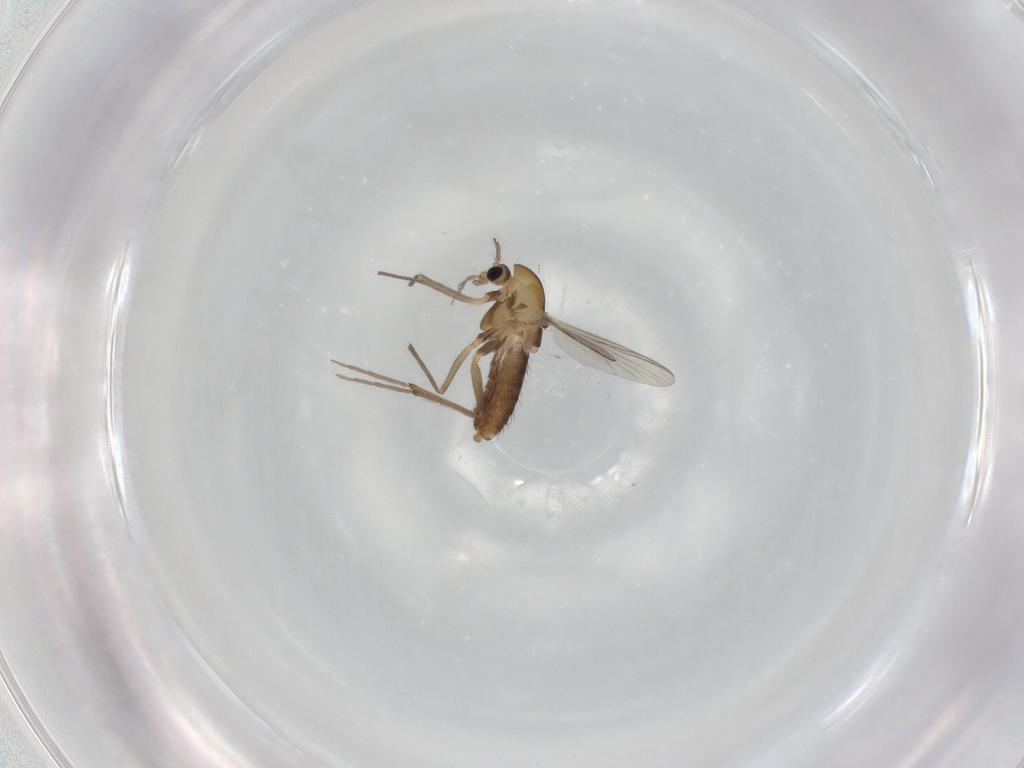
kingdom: Animalia
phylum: Arthropoda
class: Insecta
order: Diptera
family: Chironomidae
